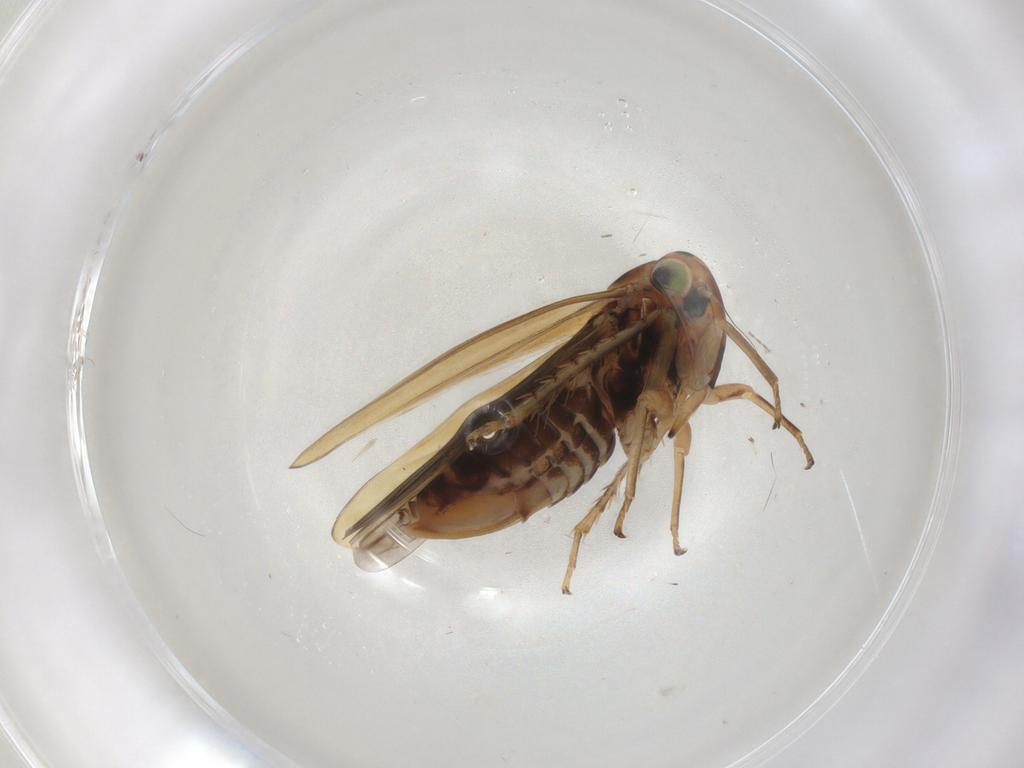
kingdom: Animalia
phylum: Arthropoda
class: Insecta
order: Hemiptera
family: Cicadellidae
